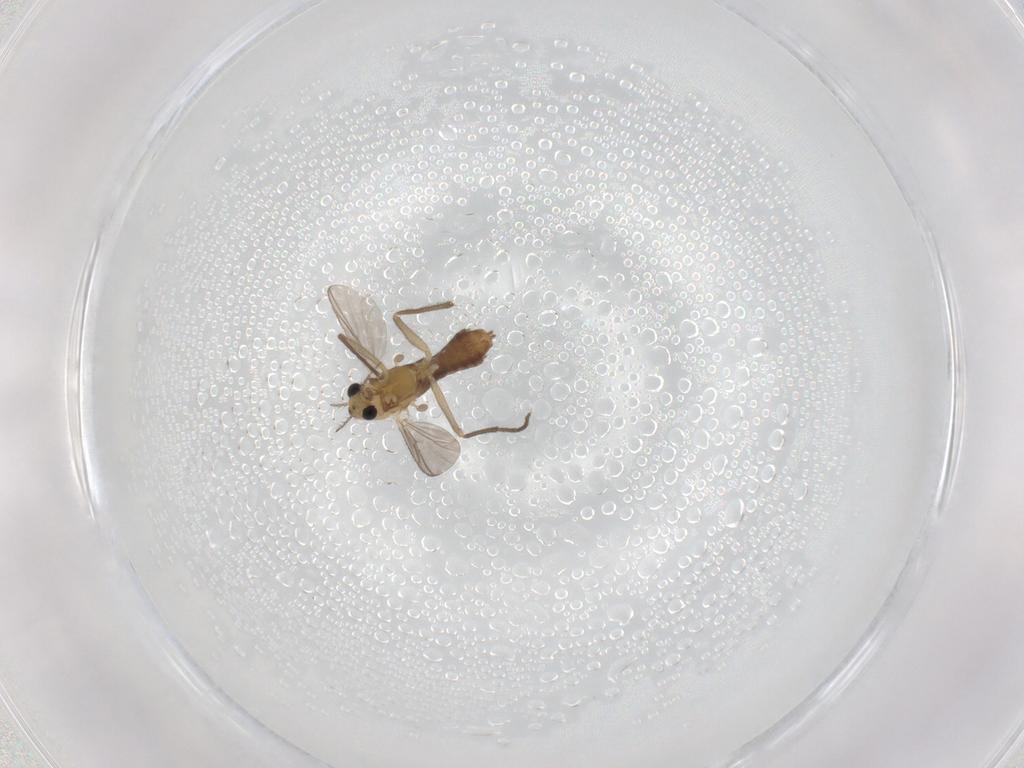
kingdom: Animalia
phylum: Arthropoda
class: Insecta
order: Diptera
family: Chironomidae
